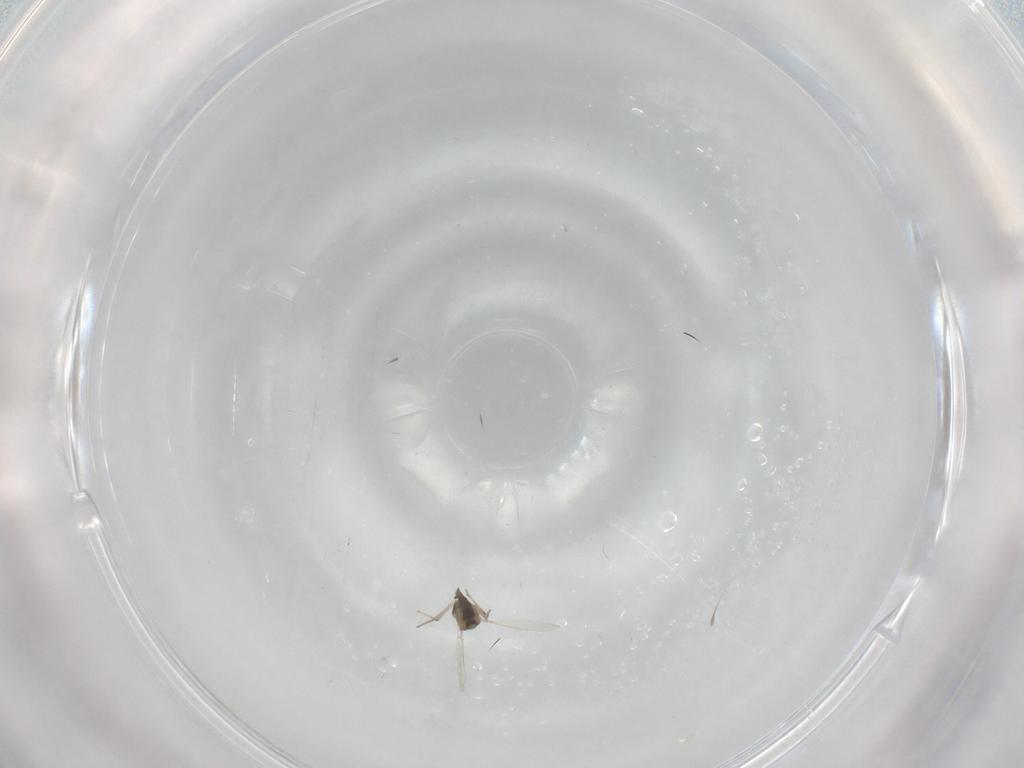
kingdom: Animalia
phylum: Arthropoda
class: Insecta
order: Diptera
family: Chironomidae
